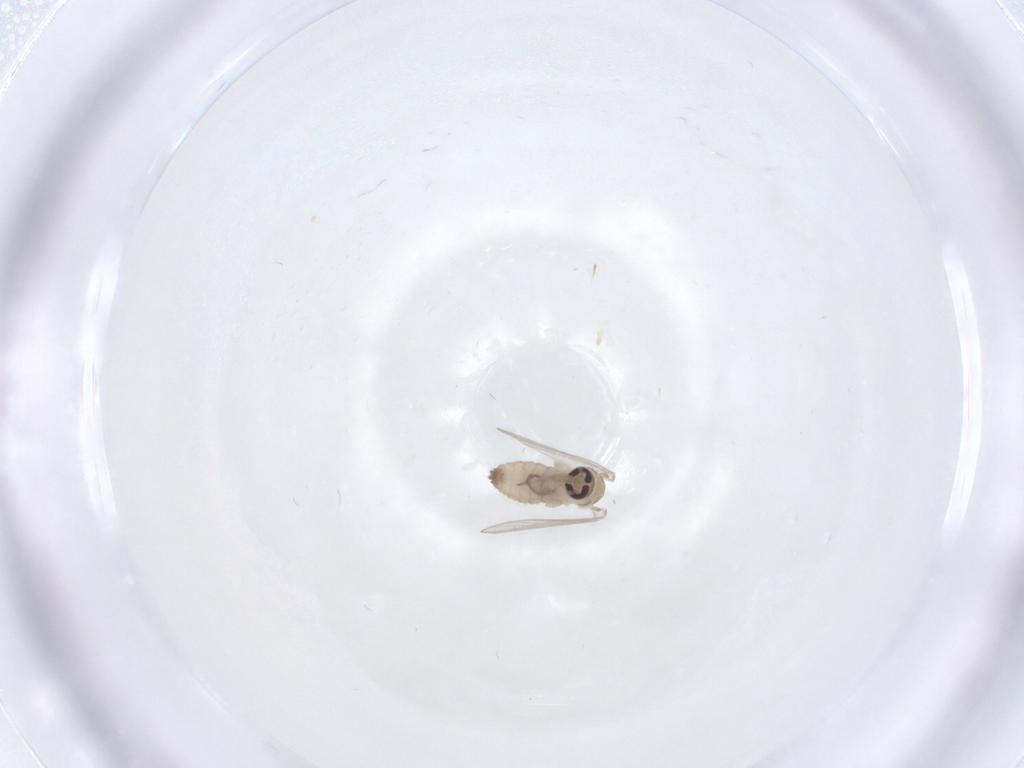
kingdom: Animalia
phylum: Arthropoda
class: Insecta
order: Diptera
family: Psychodidae
